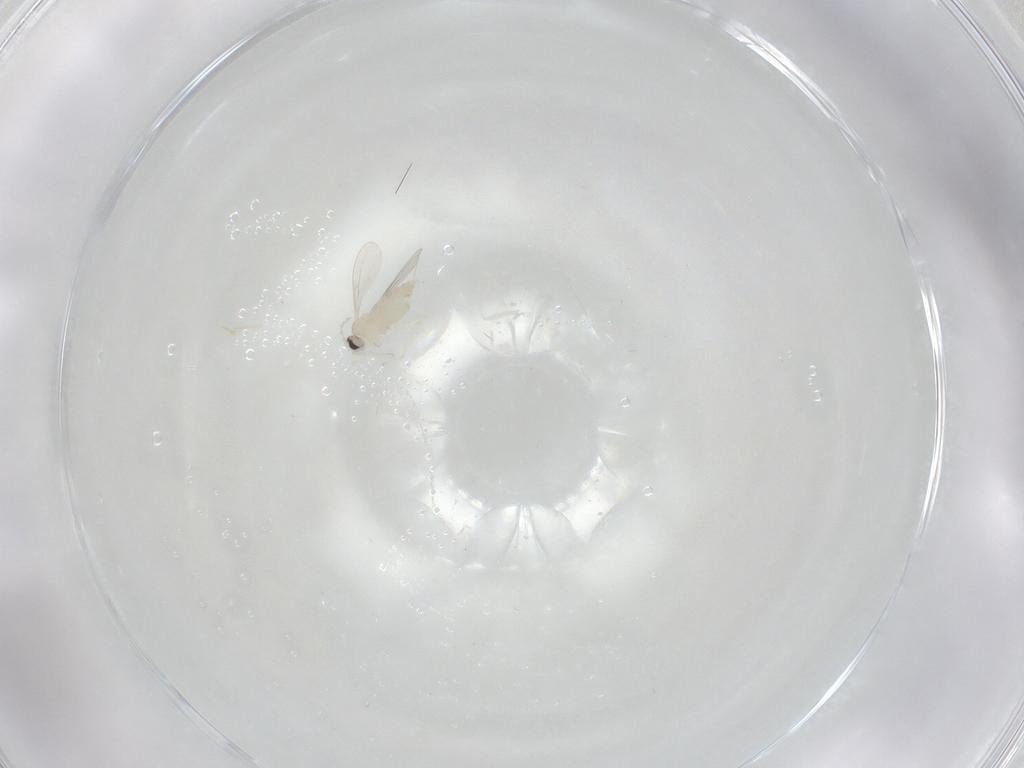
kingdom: Animalia
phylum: Arthropoda
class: Insecta
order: Diptera
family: Cecidomyiidae
